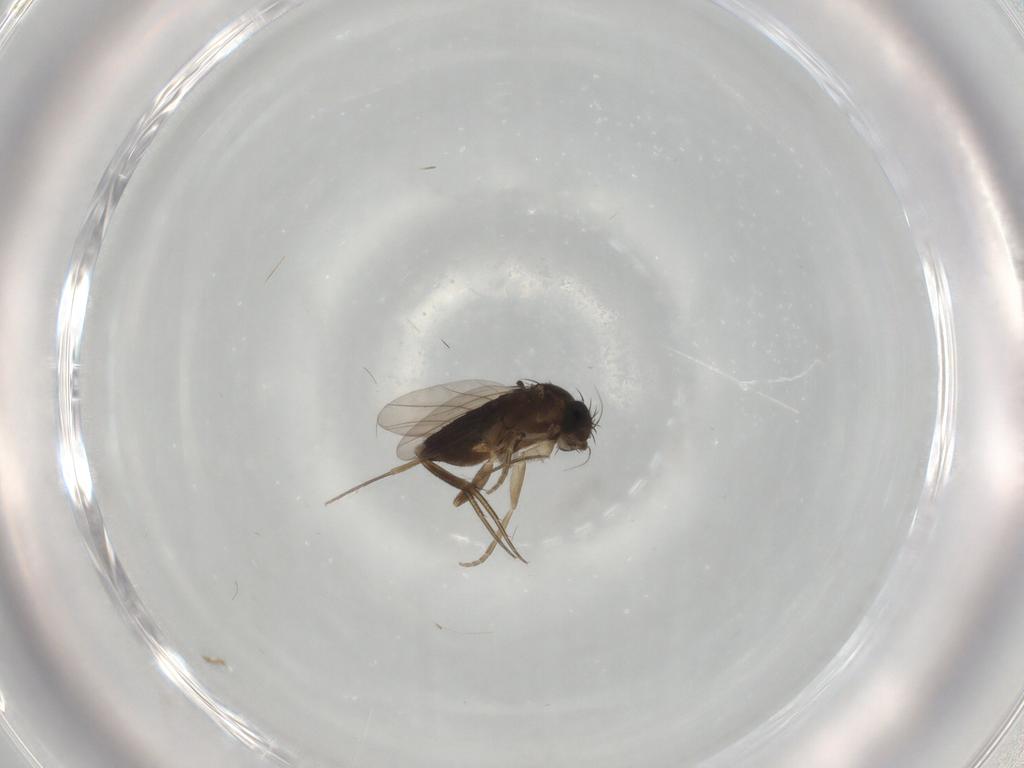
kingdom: Animalia
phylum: Arthropoda
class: Insecta
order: Diptera
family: Phoridae
